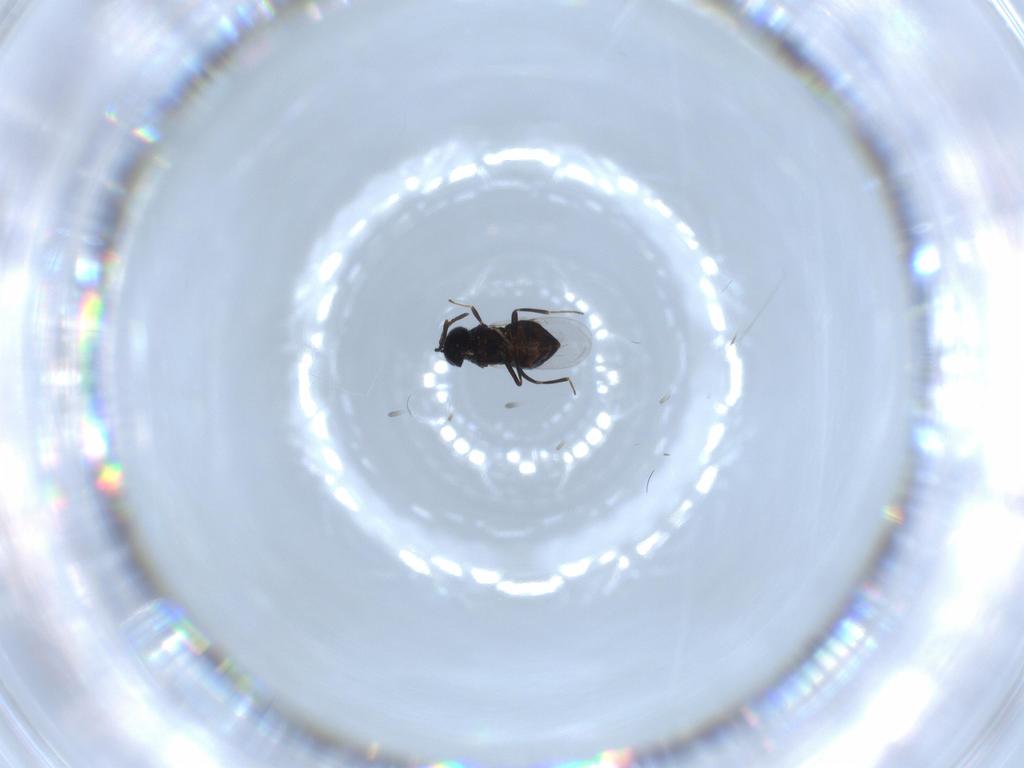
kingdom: Animalia
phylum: Arthropoda
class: Insecta
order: Hymenoptera
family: Encyrtidae
